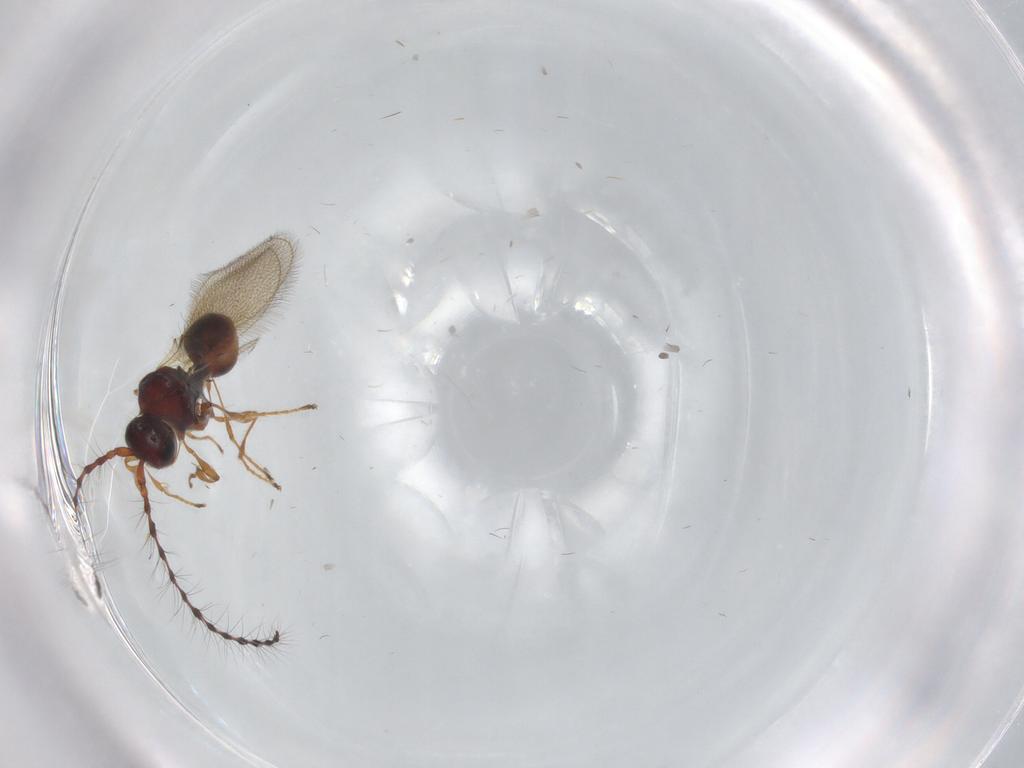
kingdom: Animalia
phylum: Arthropoda
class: Insecta
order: Hymenoptera
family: Diapriidae
